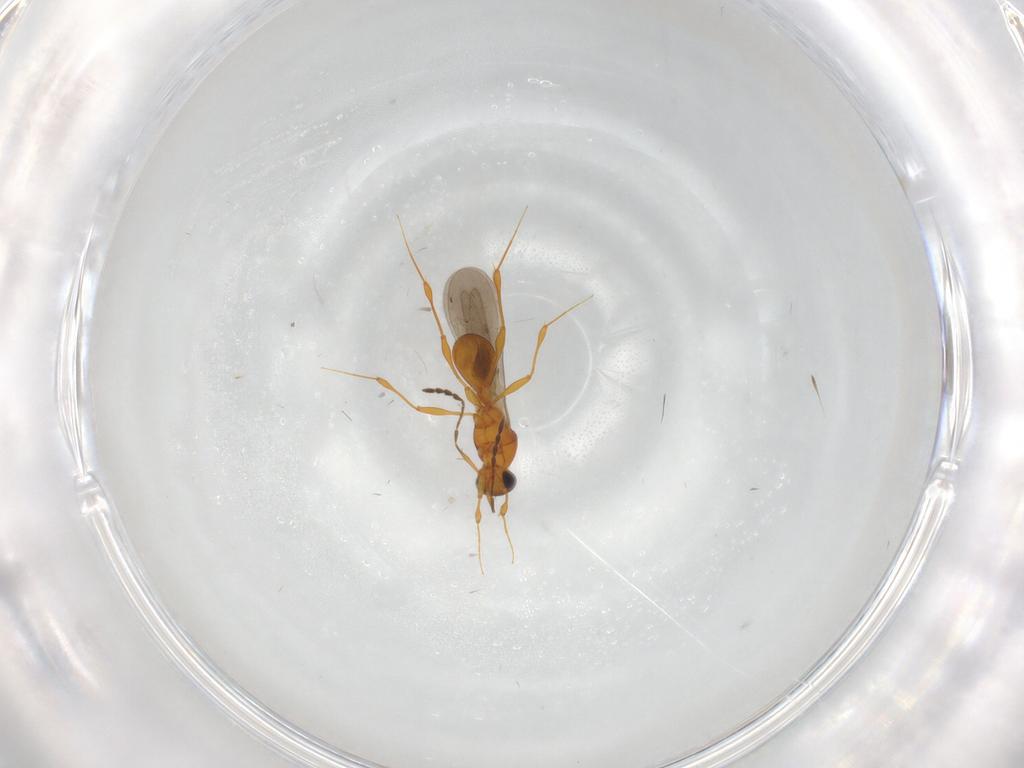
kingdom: Animalia
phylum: Arthropoda
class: Insecta
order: Hymenoptera
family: Platygastridae
